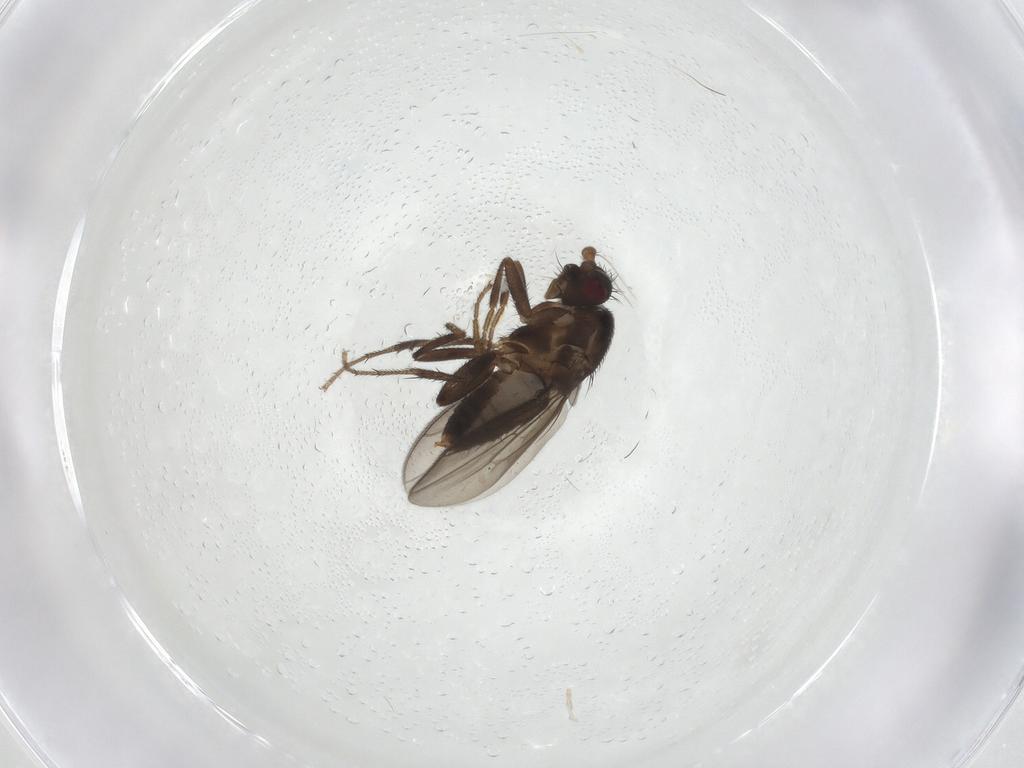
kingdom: Animalia
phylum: Arthropoda
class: Insecta
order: Diptera
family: Sphaeroceridae
